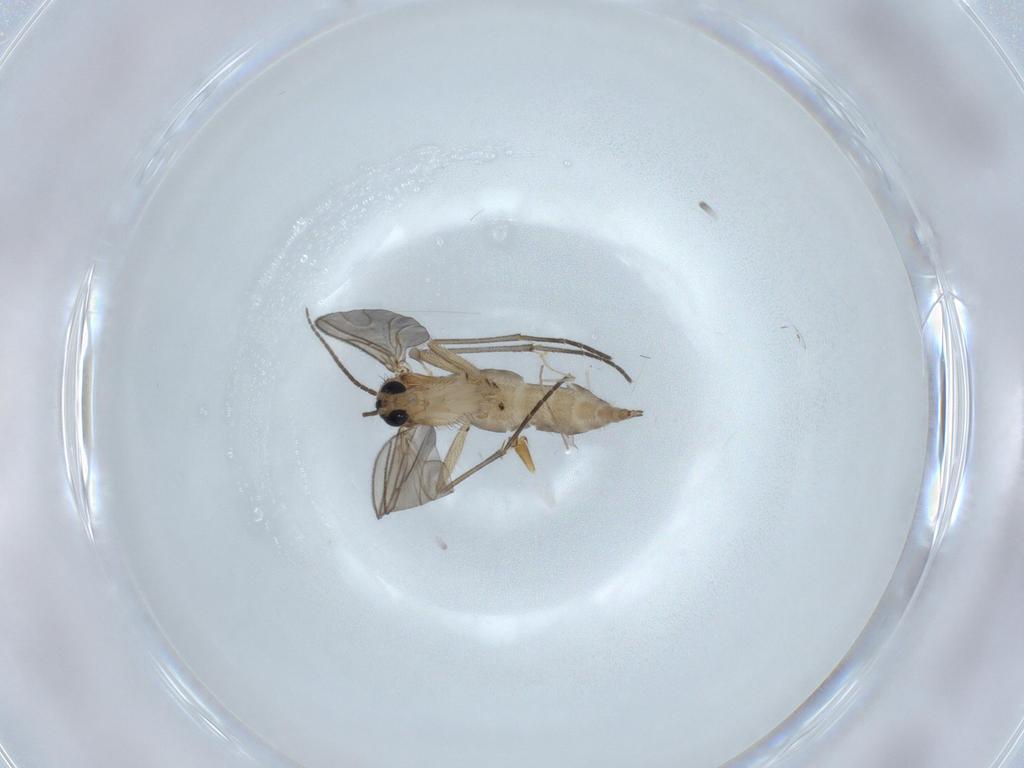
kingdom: Animalia
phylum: Arthropoda
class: Insecta
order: Diptera
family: Sciaridae
